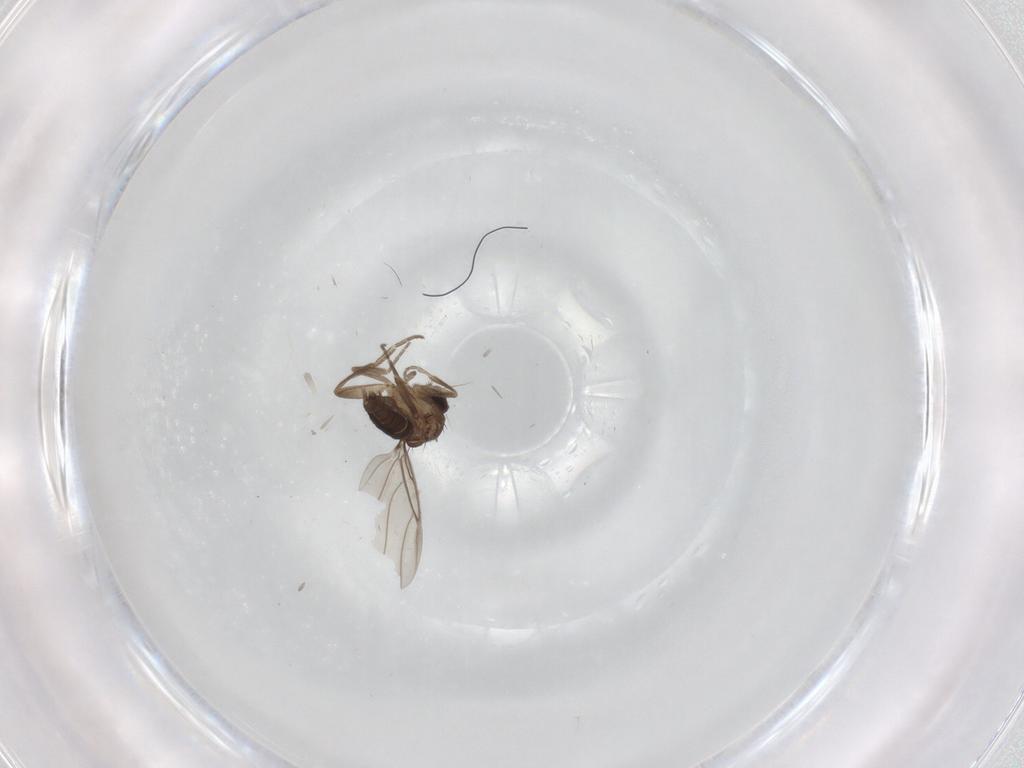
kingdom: Animalia
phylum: Arthropoda
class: Insecta
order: Diptera
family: Phoridae
